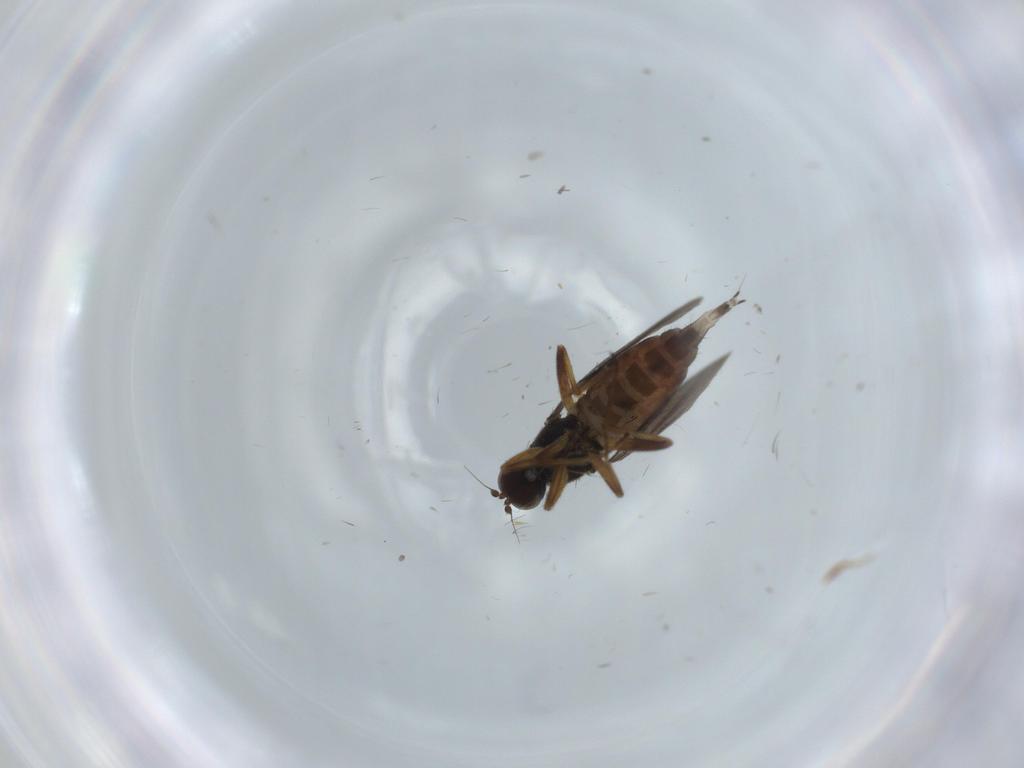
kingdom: Animalia
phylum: Arthropoda
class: Insecta
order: Diptera
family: Hybotidae
